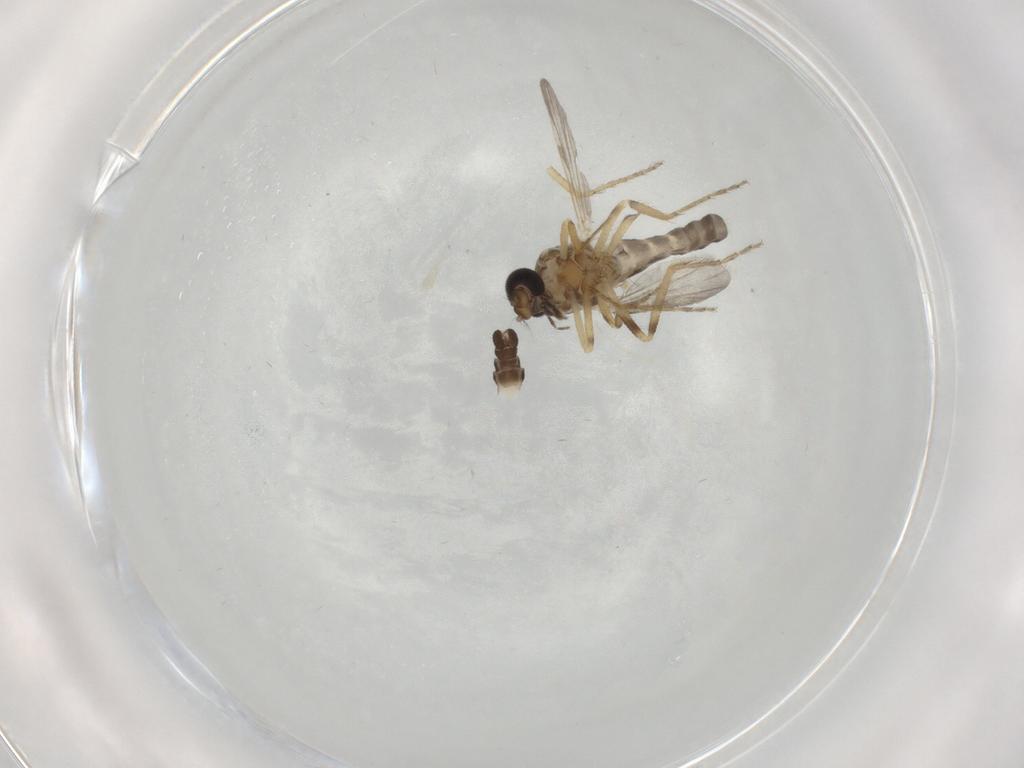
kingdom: Animalia
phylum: Arthropoda
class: Insecta
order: Diptera
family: Ceratopogonidae
